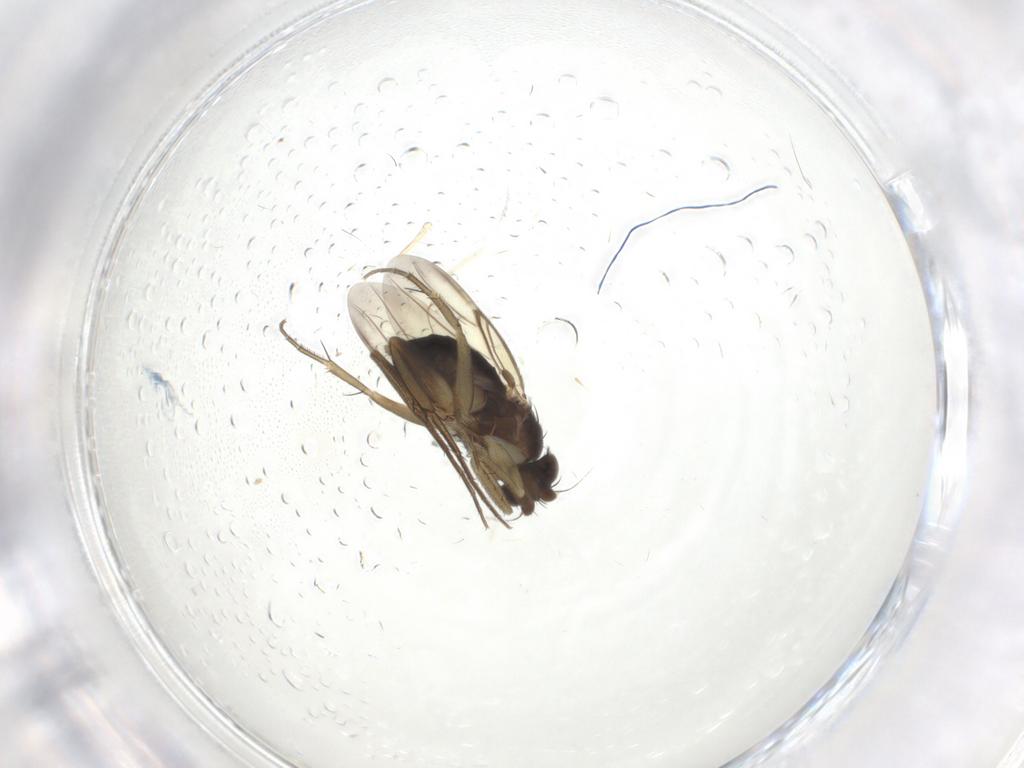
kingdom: Animalia
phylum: Arthropoda
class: Insecta
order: Diptera
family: Phoridae
